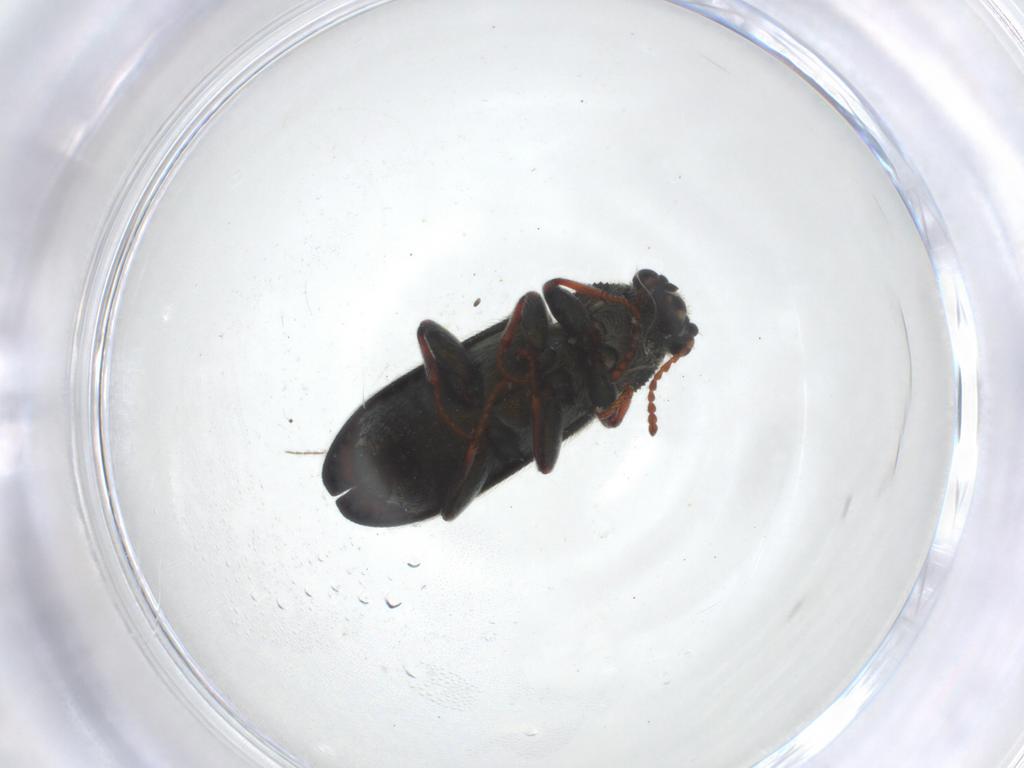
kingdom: Animalia
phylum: Arthropoda
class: Insecta
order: Coleoptera
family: Melyridae
